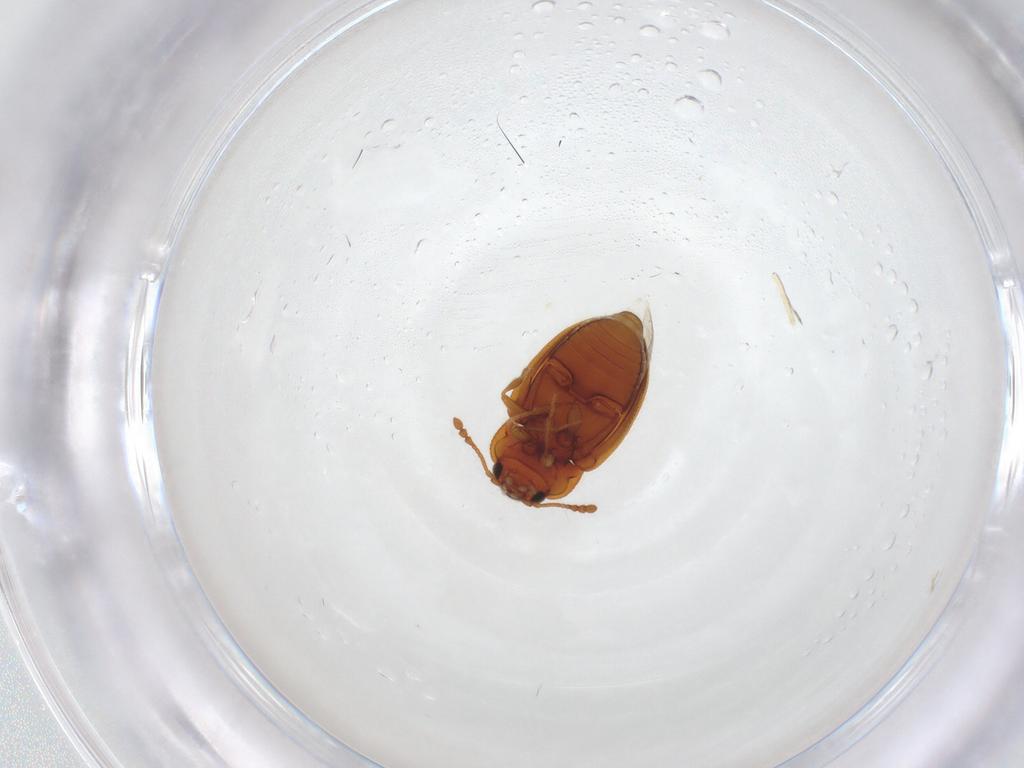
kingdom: Animalia
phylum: Arthropoda
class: Insecta
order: Coleoptera
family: Anamorphidae
